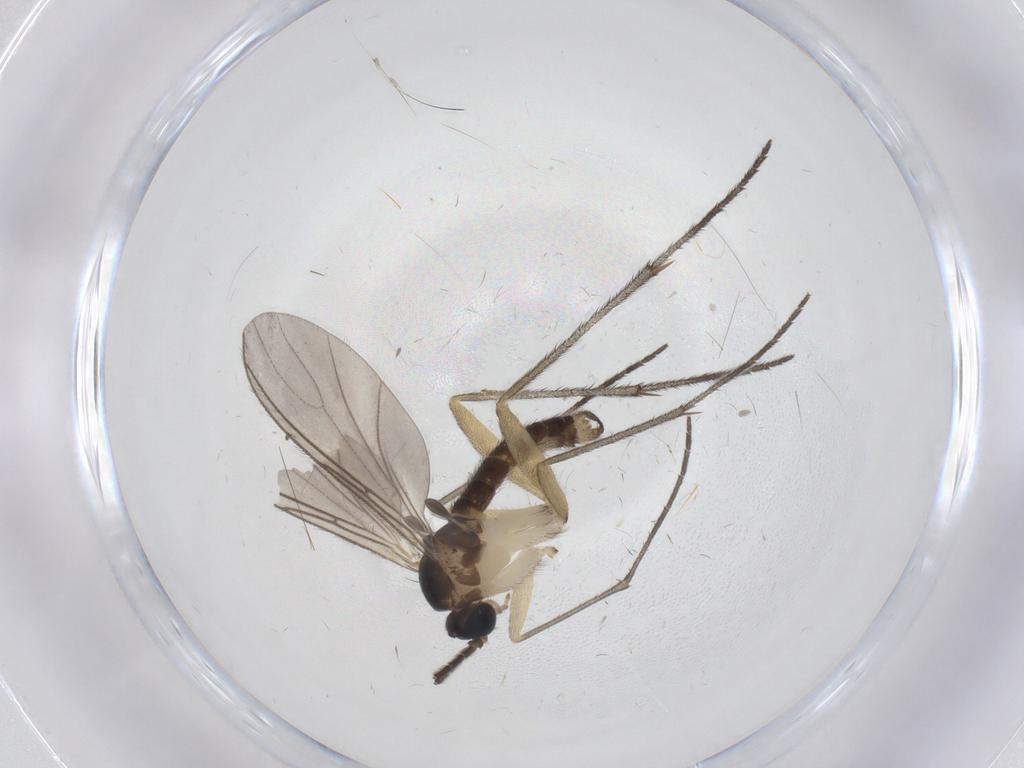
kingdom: Animalia
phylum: Arthropoda
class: Insecta
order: Diptera
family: Sciaridae
